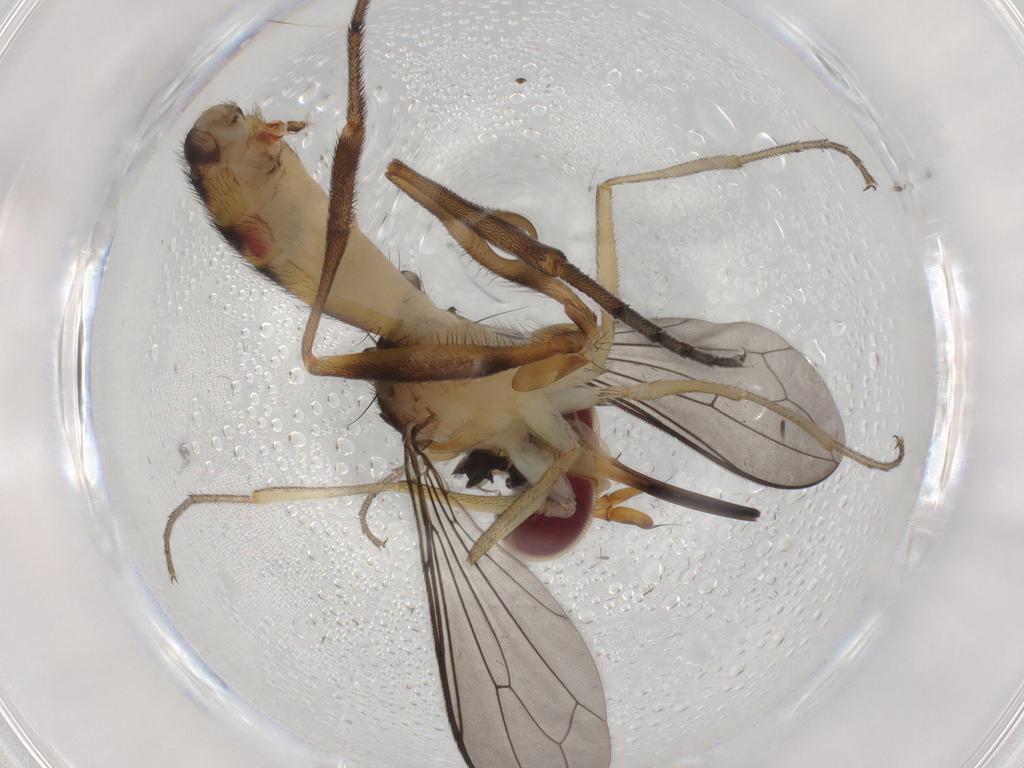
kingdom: Animalia
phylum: Arthropoda
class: Insecta
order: Diptera
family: Conopidae
